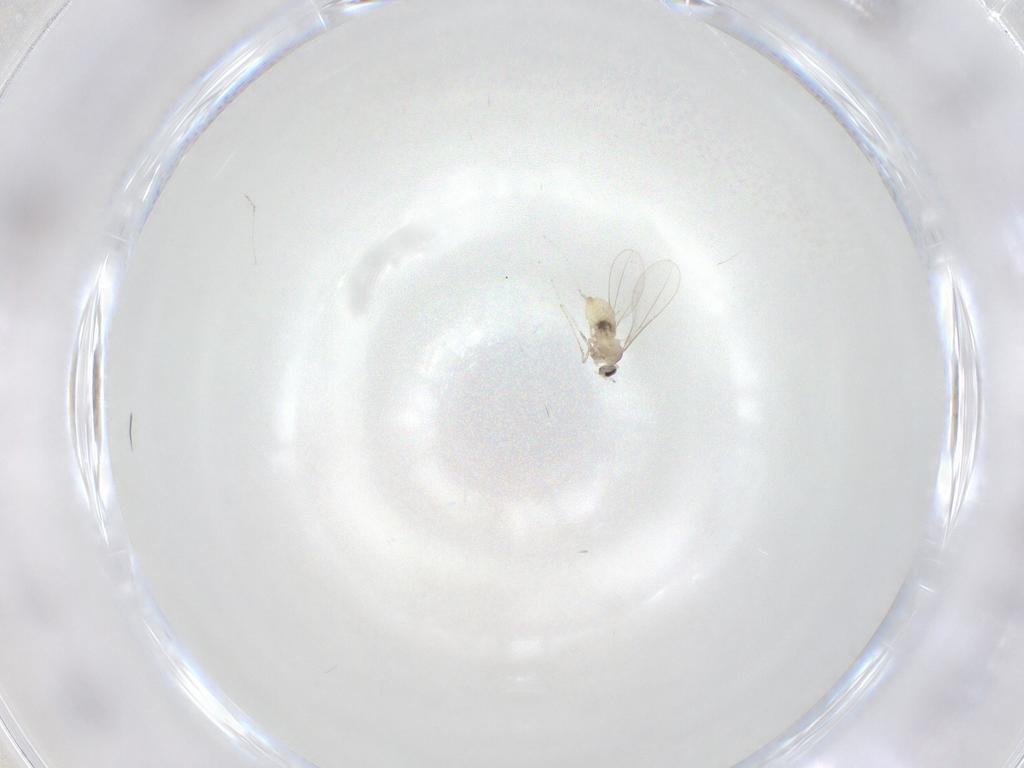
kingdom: Animalia
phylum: Arthropoda
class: Insecta
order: Diptera
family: Cecidomyiidae
